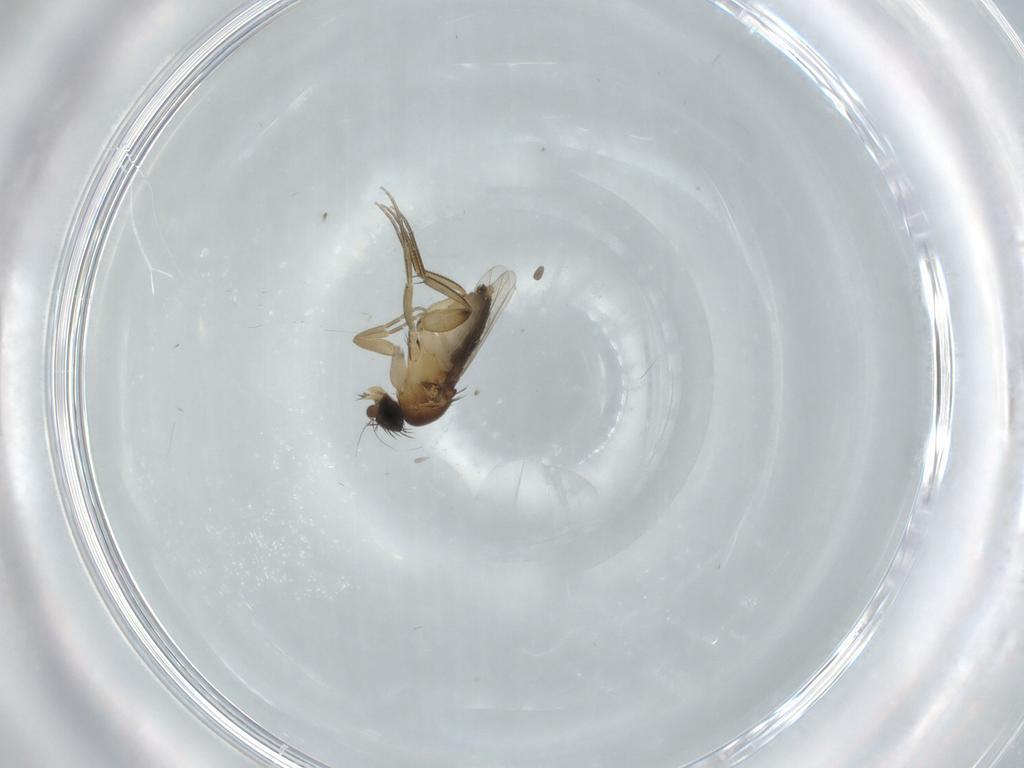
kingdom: Animalia
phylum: Arthropoda
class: Insecta
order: Diptera
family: Phoridae
